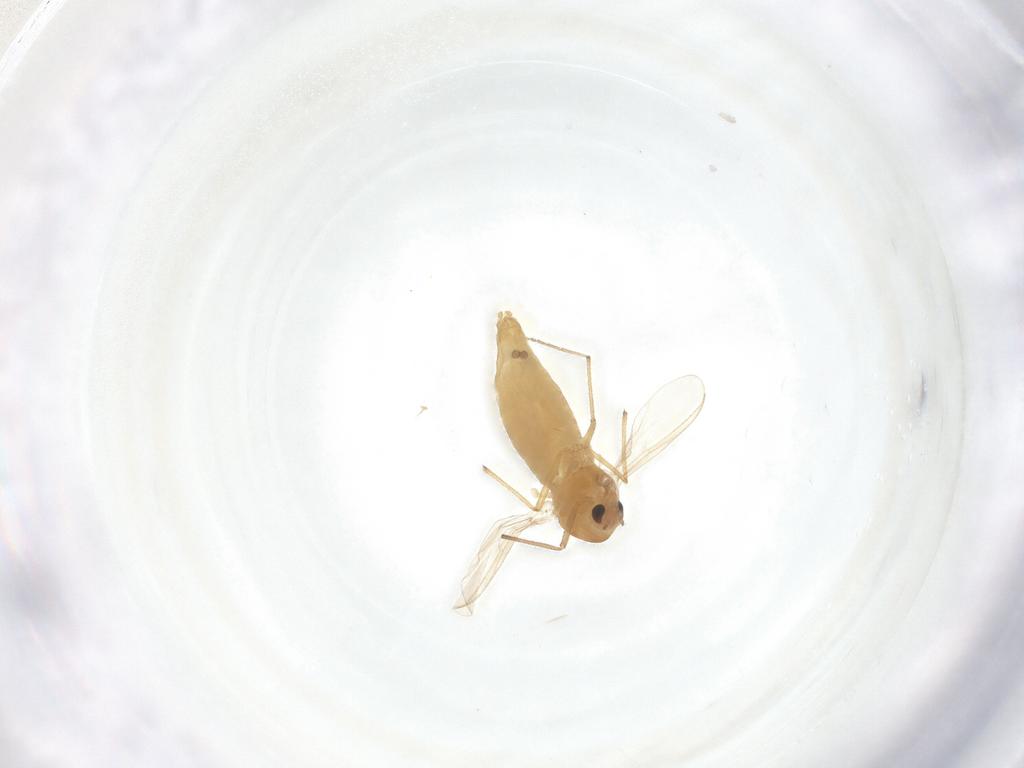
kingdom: Animalia
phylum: Arthropoda
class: Insecta
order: Diptera
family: Chironomidae
